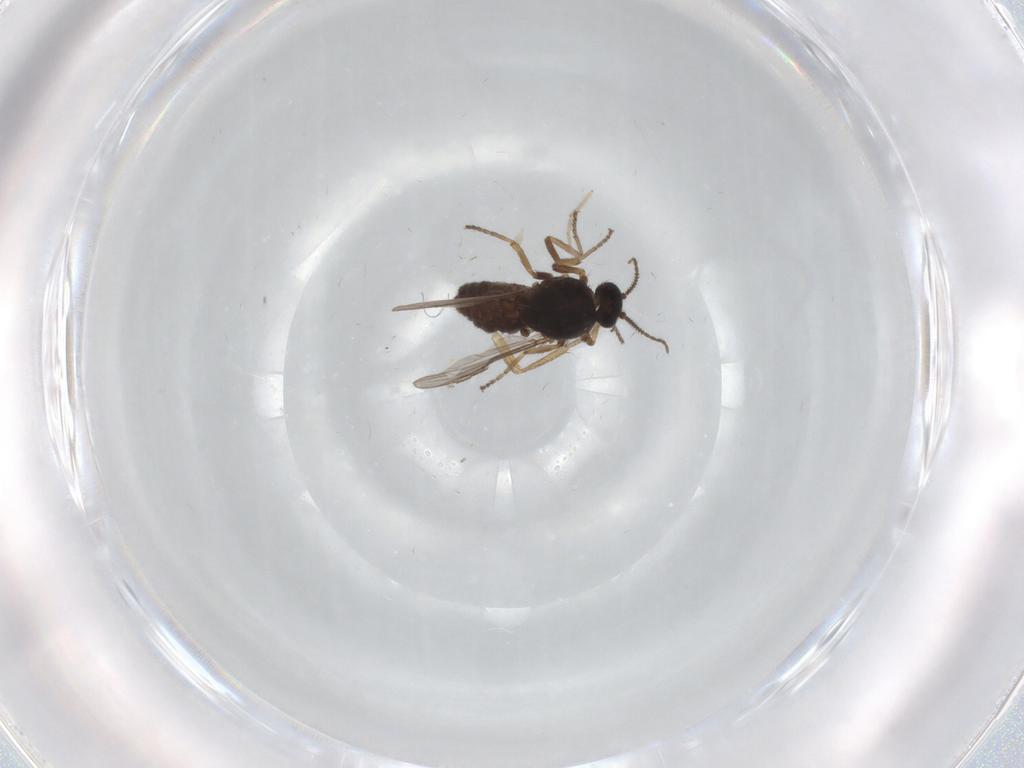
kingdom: Animalia
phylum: Arthropoda
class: Insecta
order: Diptera
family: Ceratopogonidae
